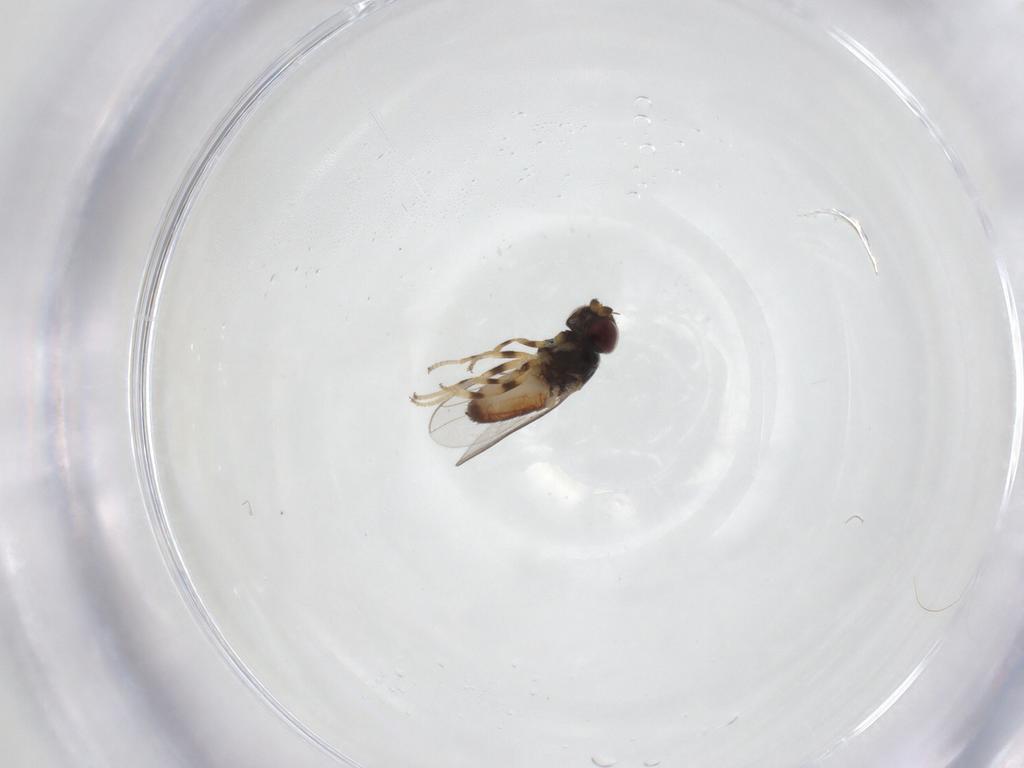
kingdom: Animalia
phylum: Arthropoda
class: Insecta
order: Diptera
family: Chloropidae
